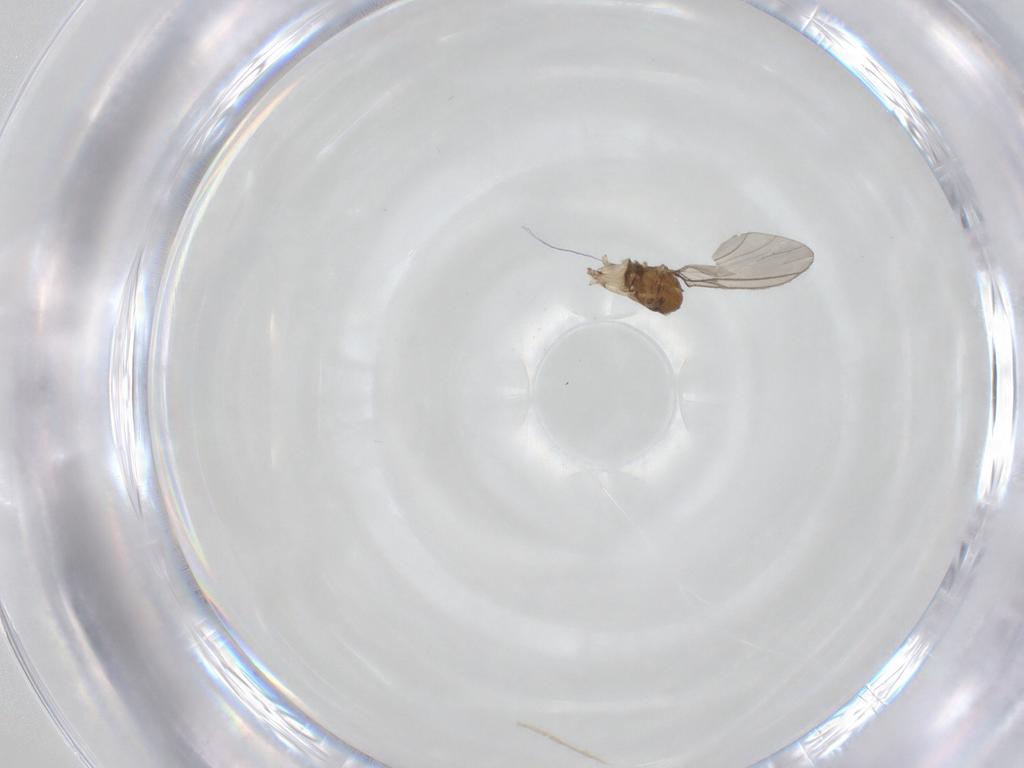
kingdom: Animalia
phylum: Arthropoda
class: Insecta
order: Diptera
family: Sciaridae
